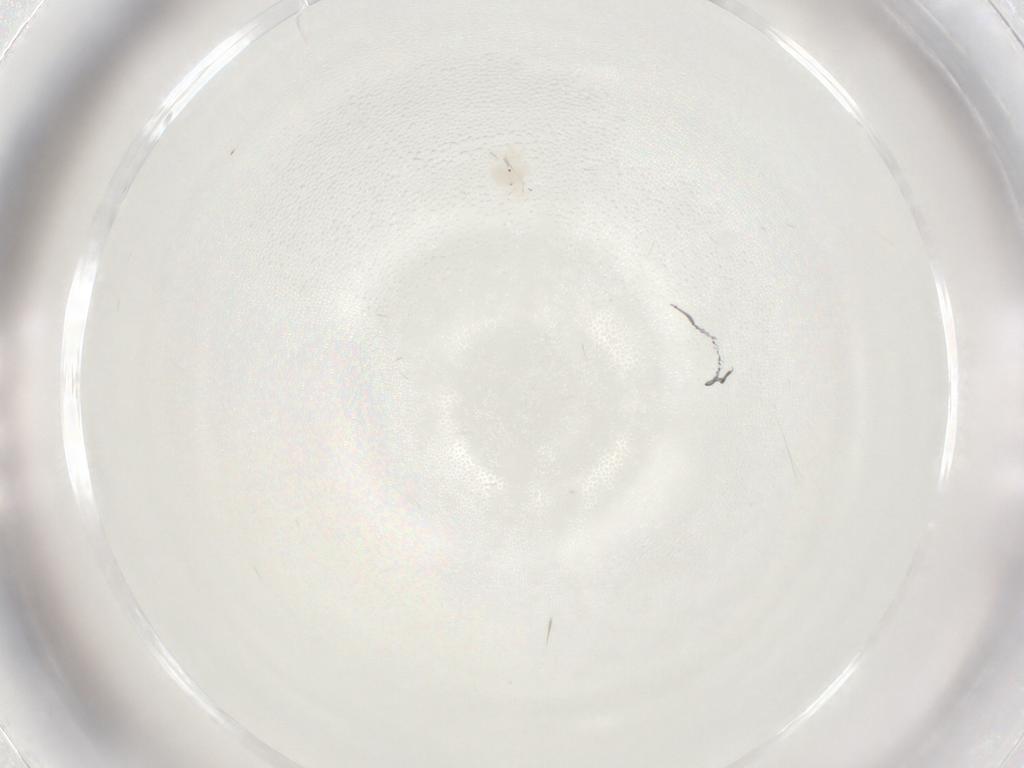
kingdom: Animalia
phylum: Arthropoda
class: Arachnida
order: Trombidiformes
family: Anystidae
